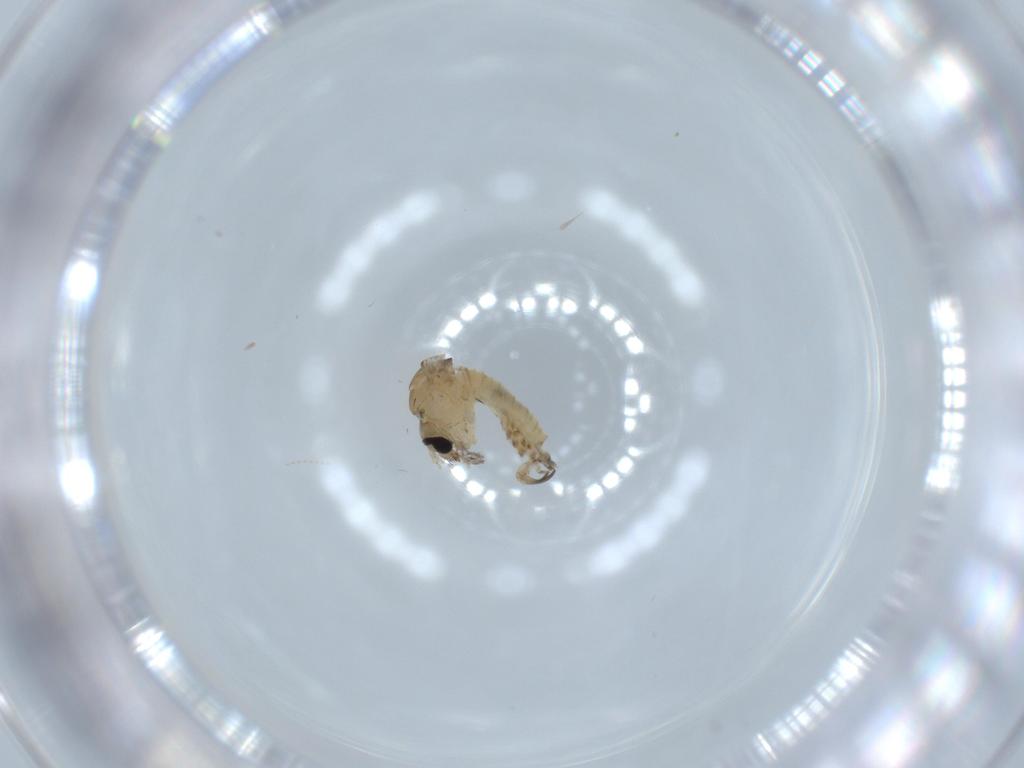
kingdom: Animalia
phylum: Arthropoda
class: Insecta
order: Diptera
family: Psychodidae
